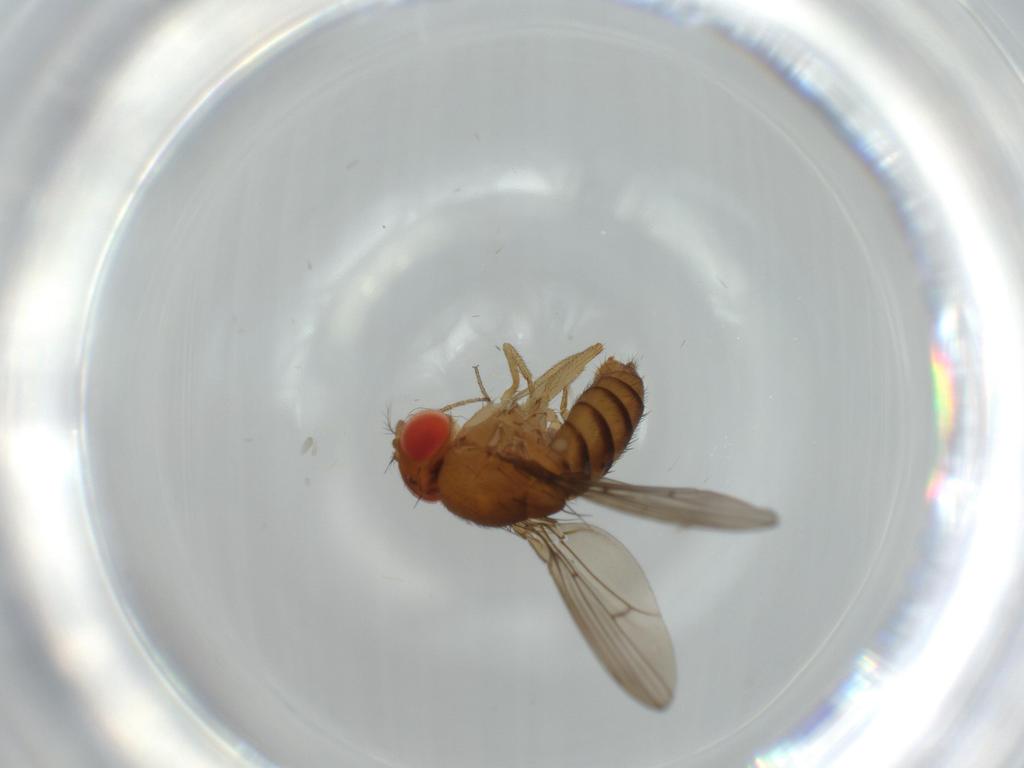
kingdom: Animalia
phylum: Arthropoda
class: Insecta
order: Diptera
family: Drosophilidae
